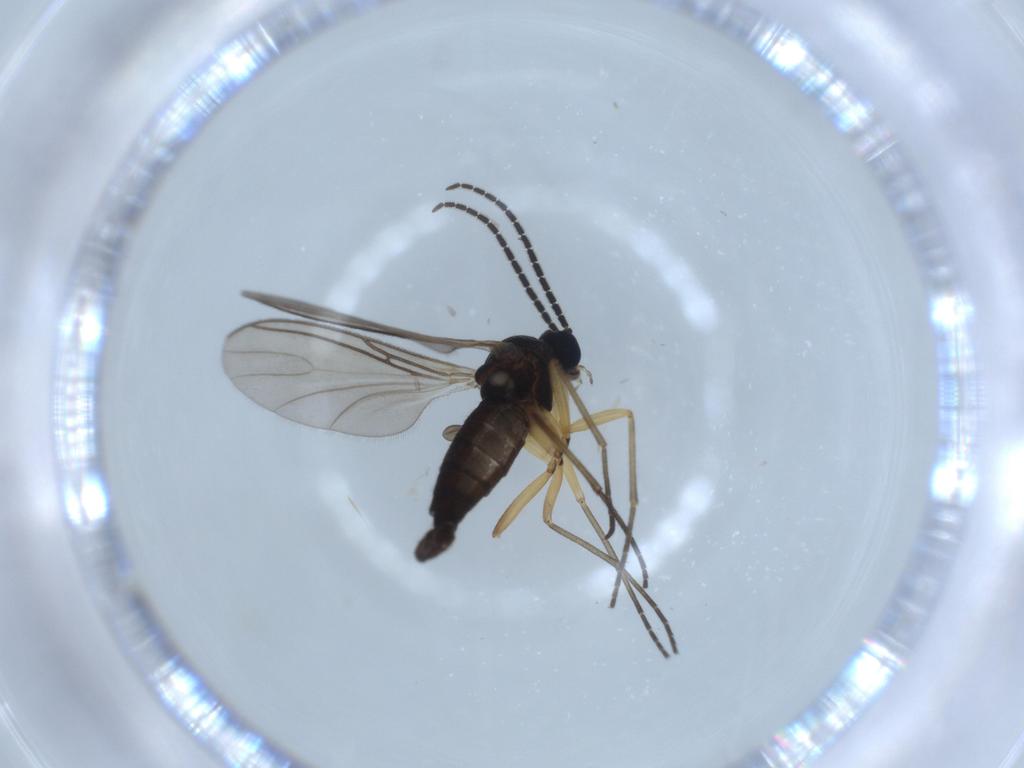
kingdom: Animalia
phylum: Arthropoda
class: Insecta
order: Diptera
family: Sciaridae
